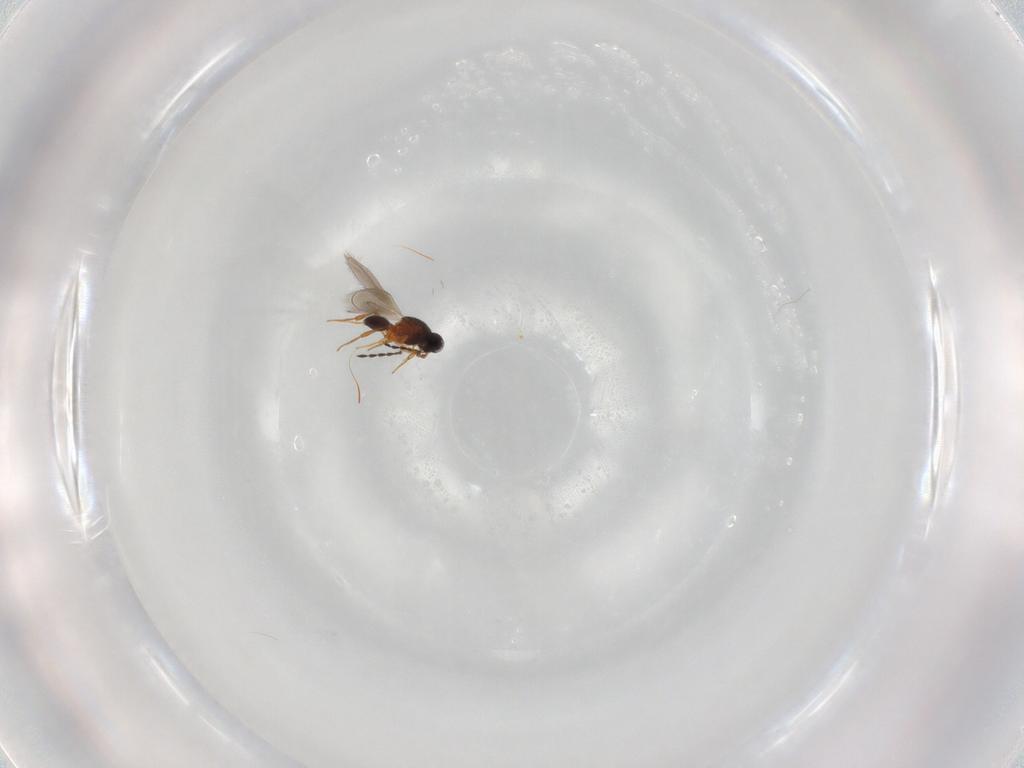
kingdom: Animalia
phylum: Arthropoda
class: Insecta
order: Hymenoptera
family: Platygastridae
